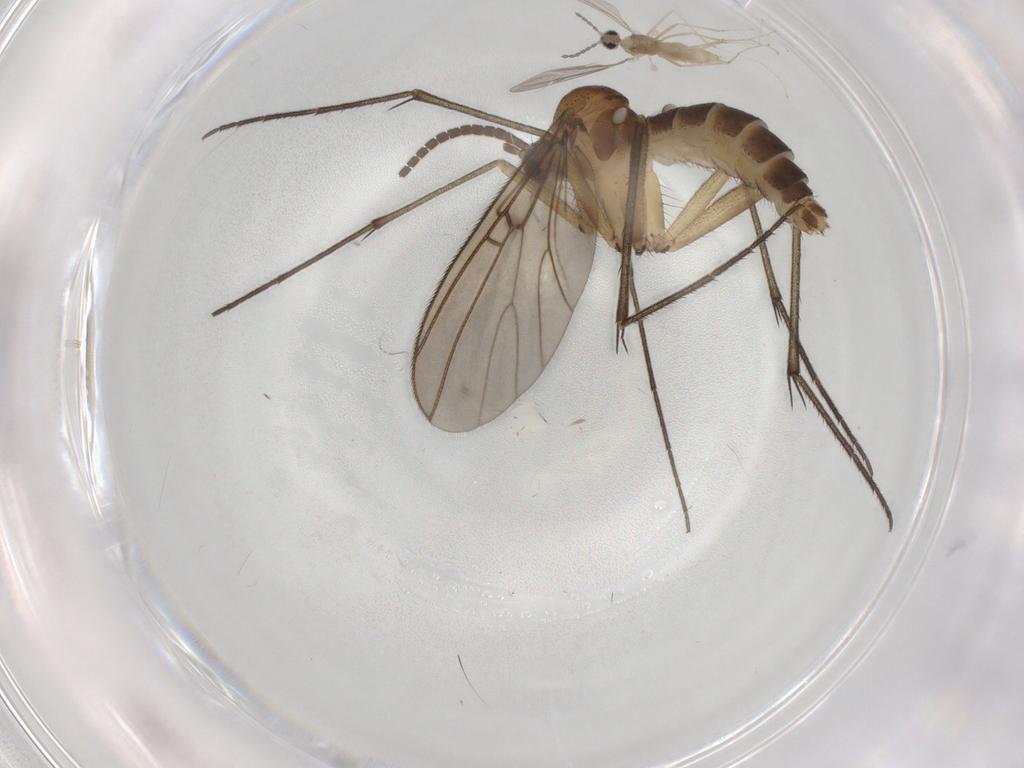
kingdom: Animalia
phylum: Arthropoda
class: Insecta
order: Diptera
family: Mycetophilidae
